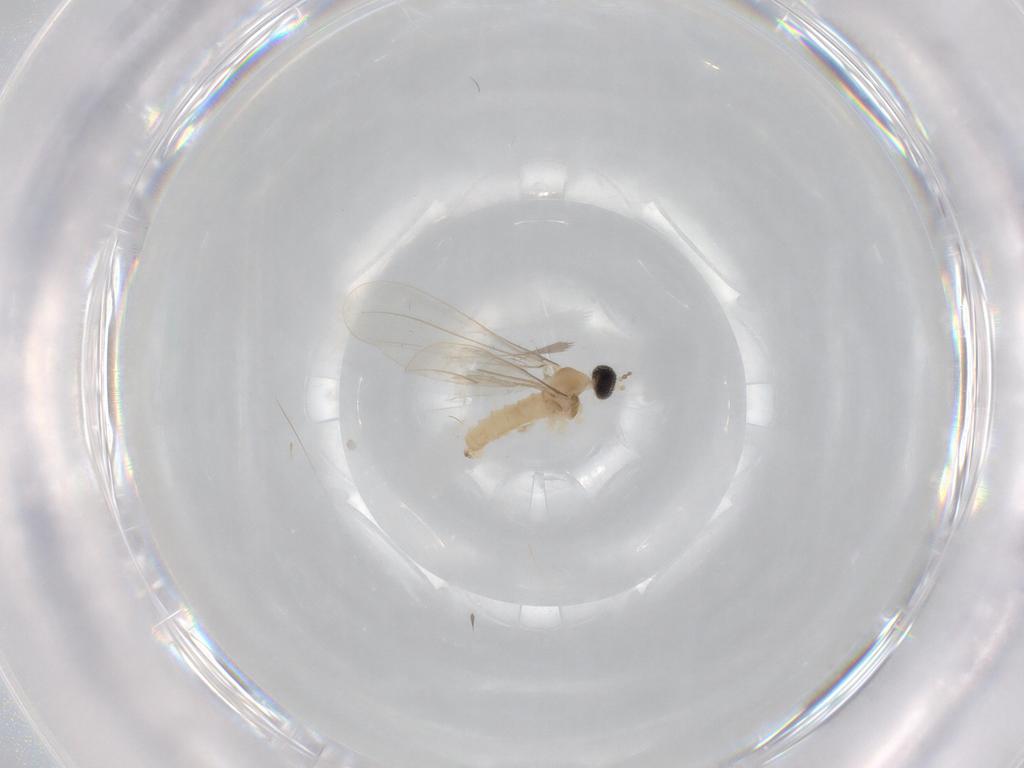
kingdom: Animalia
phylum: Arthropoda
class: Insecta
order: Diptera
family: Cecidomyiidae
